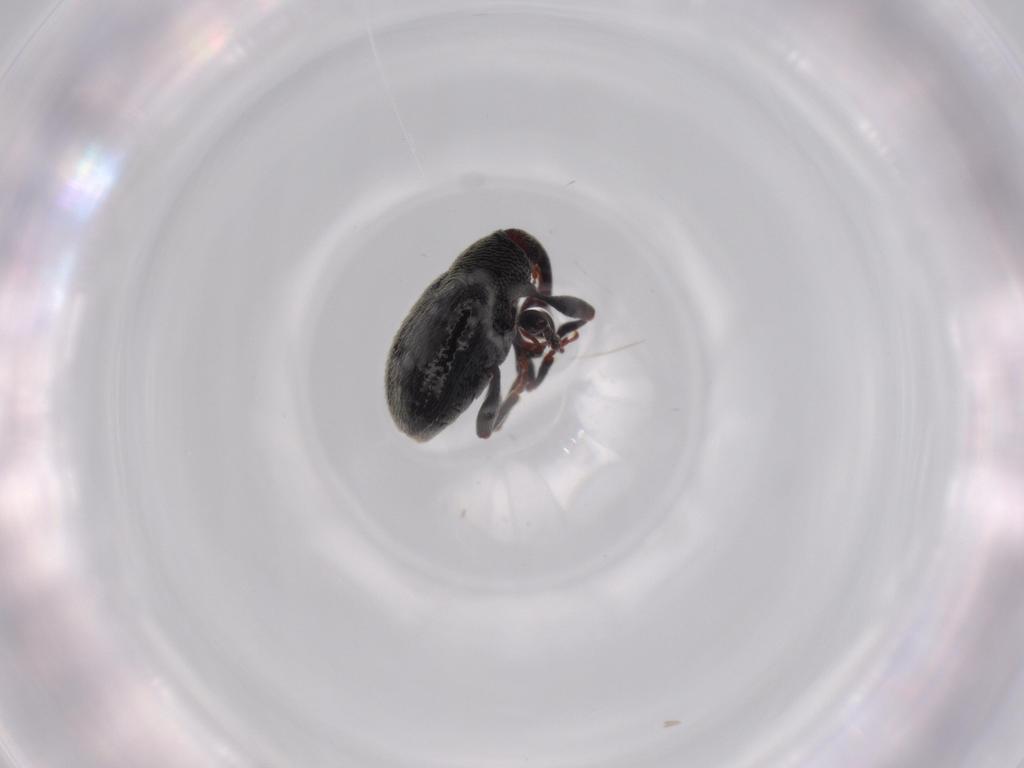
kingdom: Animalia
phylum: Arthropoda
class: Insecta
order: Coleoptera
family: Curculionidae
